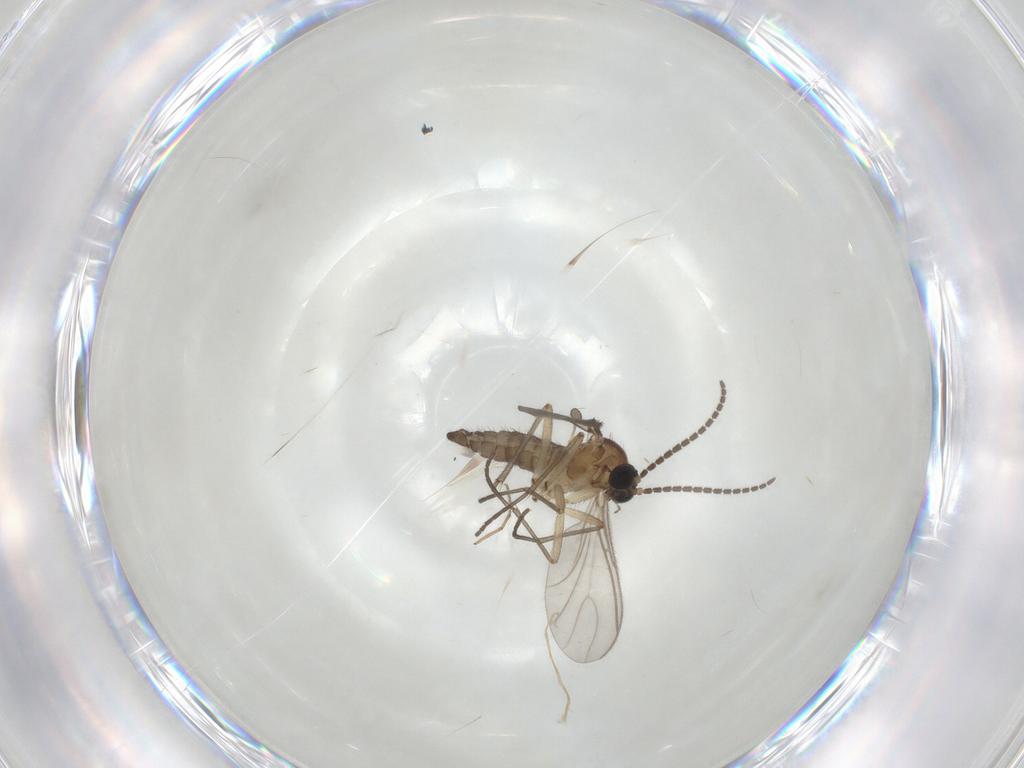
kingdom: Animalia
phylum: Arthropoda
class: Insecta
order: Diptera
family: Sciaridae
